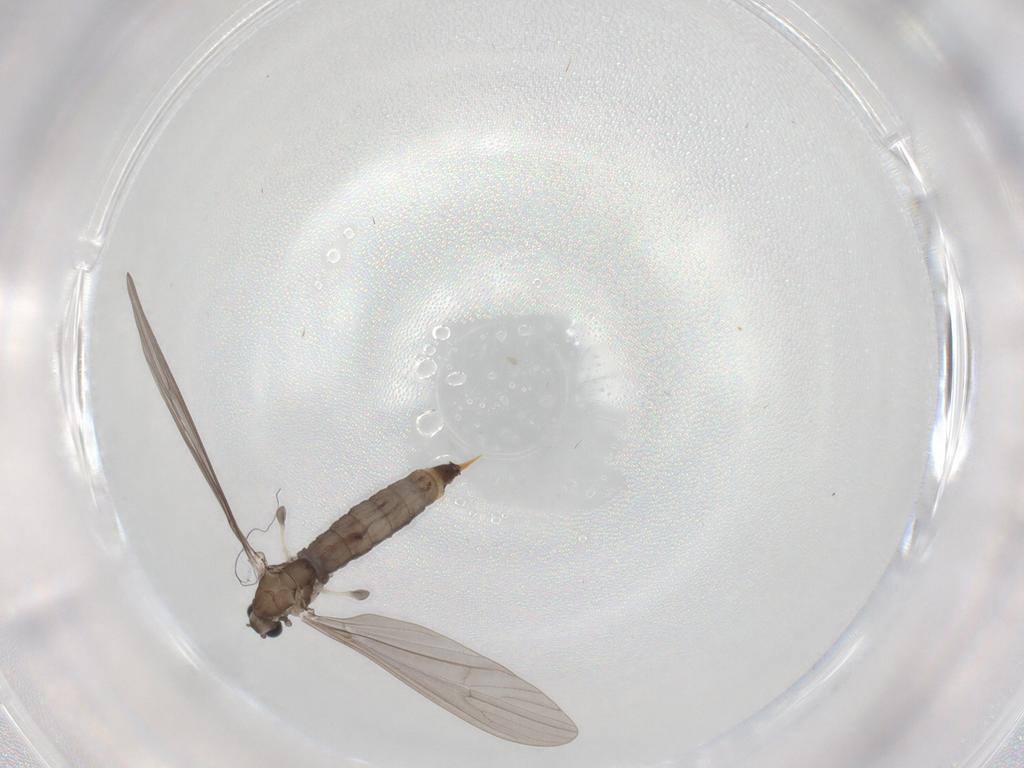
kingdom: Animalia
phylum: Arthropoda
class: Insecta
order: Diptera
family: Limoniidae
